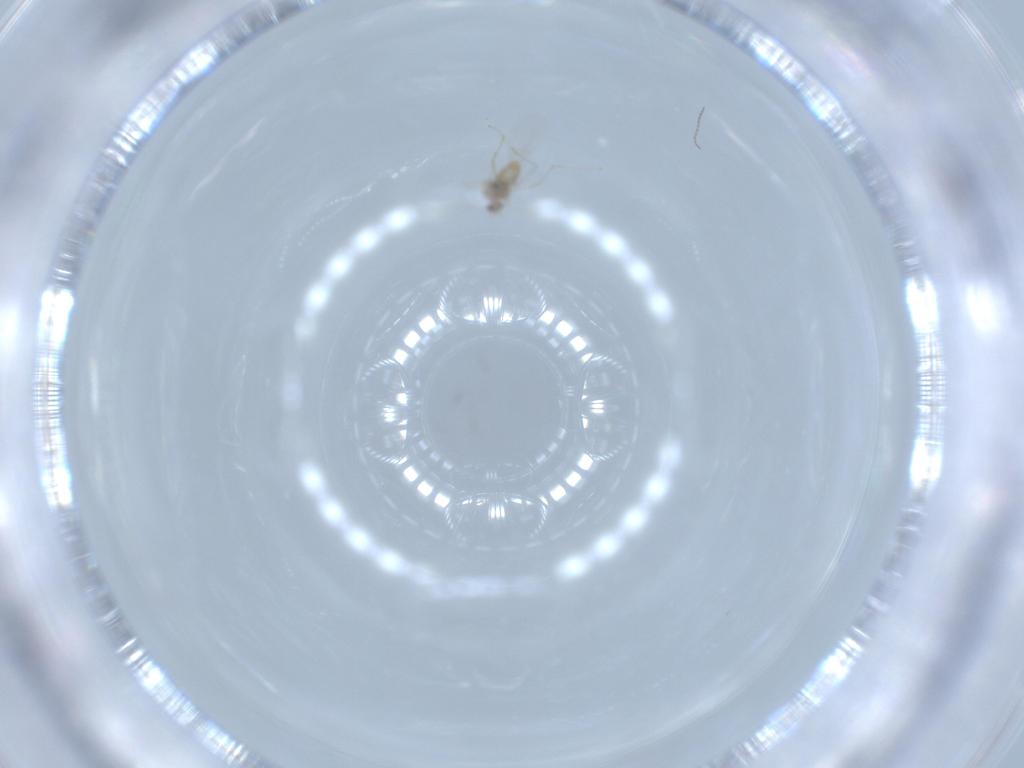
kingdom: Animalia
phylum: Arthropoda
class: Insecta
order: Diptera
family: Cecidomyiidae
